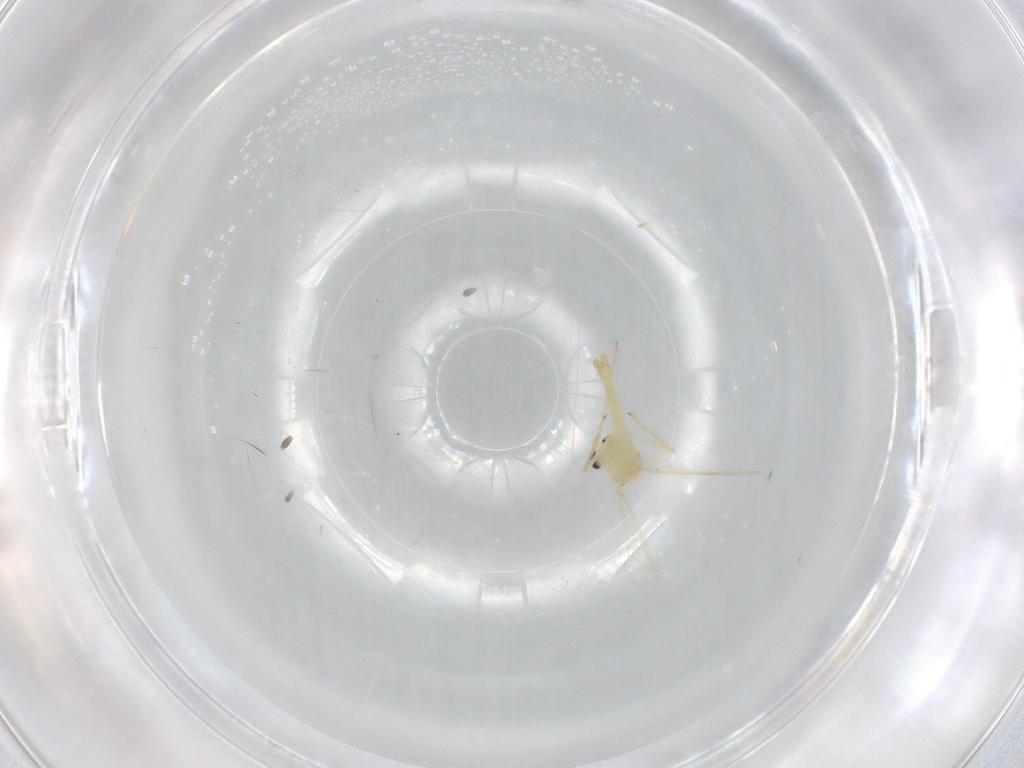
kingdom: Animalia
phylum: Arthropoda
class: Insecta
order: Diptera
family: Chironomidae
